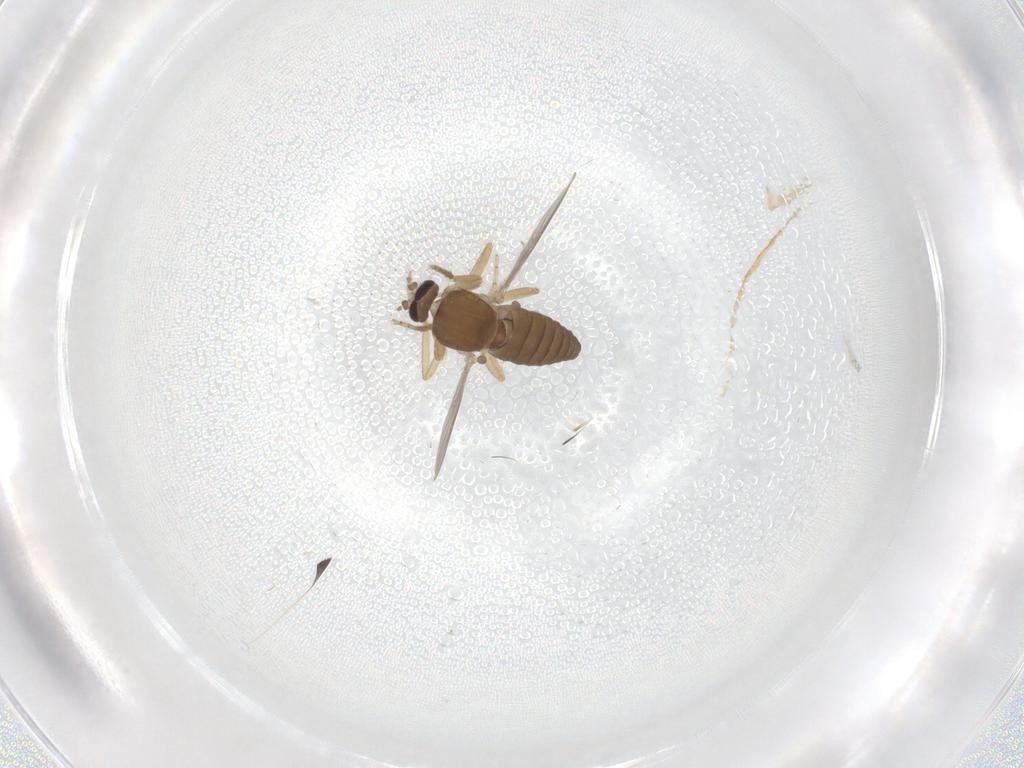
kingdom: Animalia
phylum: Arthropoda
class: Insecta
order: Diptera
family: Ceratopogonidae
